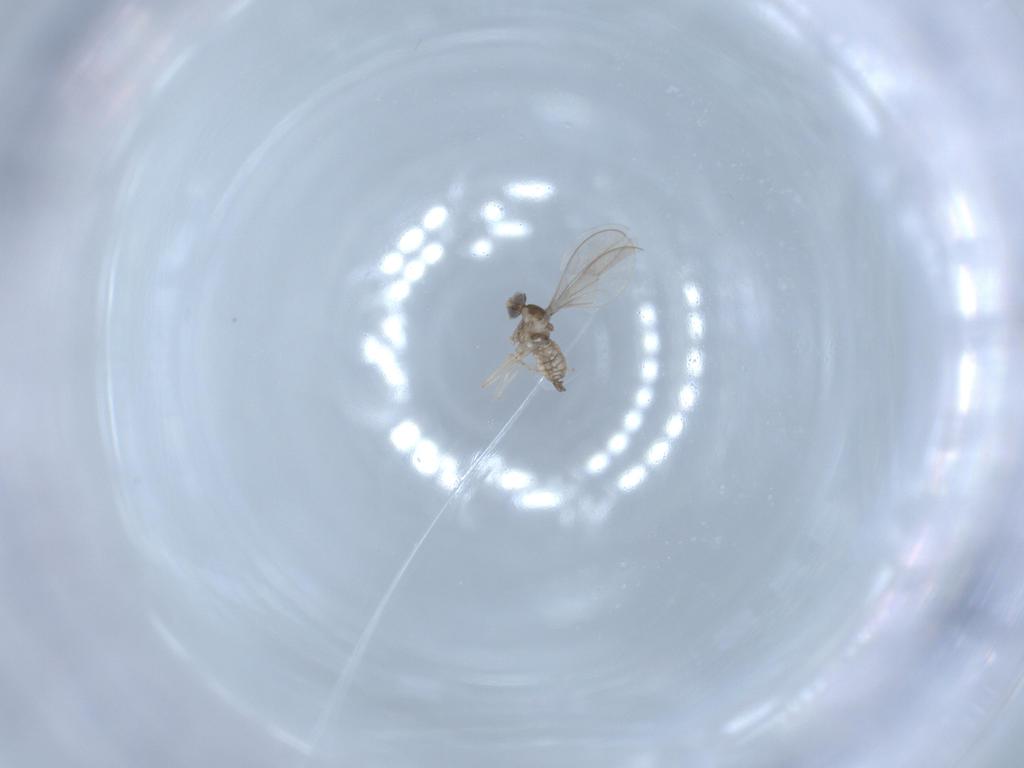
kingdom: Animalia
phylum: Arthropoda
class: Insecta
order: Diptera
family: Cecidomyiidae
